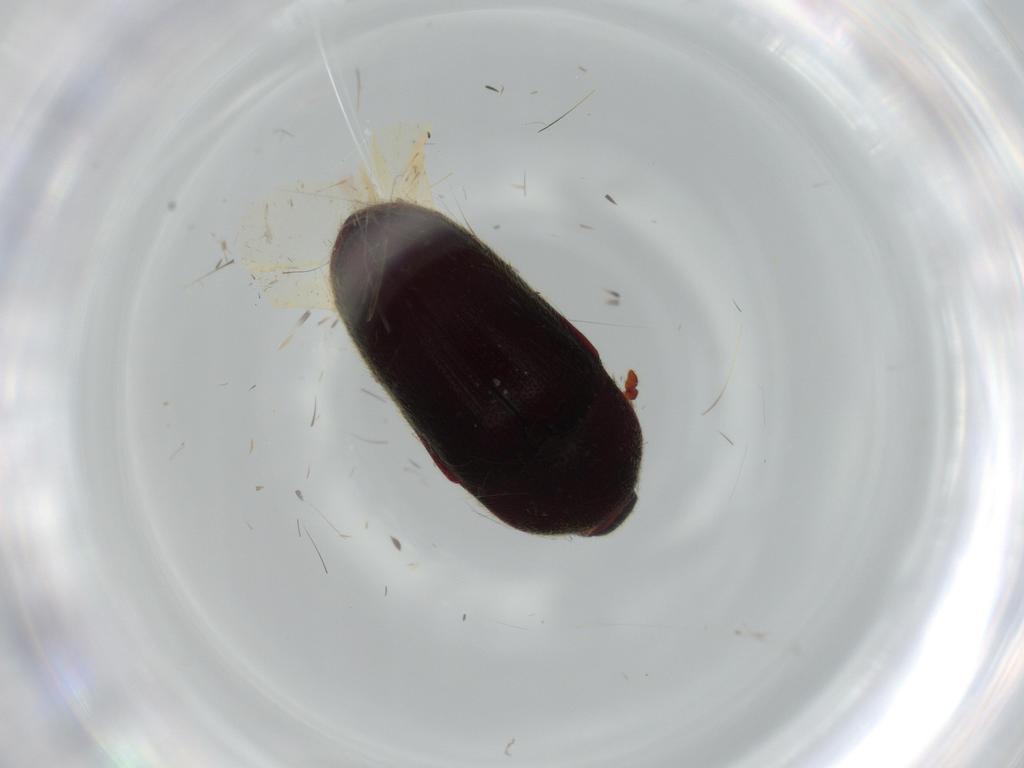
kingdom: Animalia
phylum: Arthropoda
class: Insecta
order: Coleoptera
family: Throscidae
